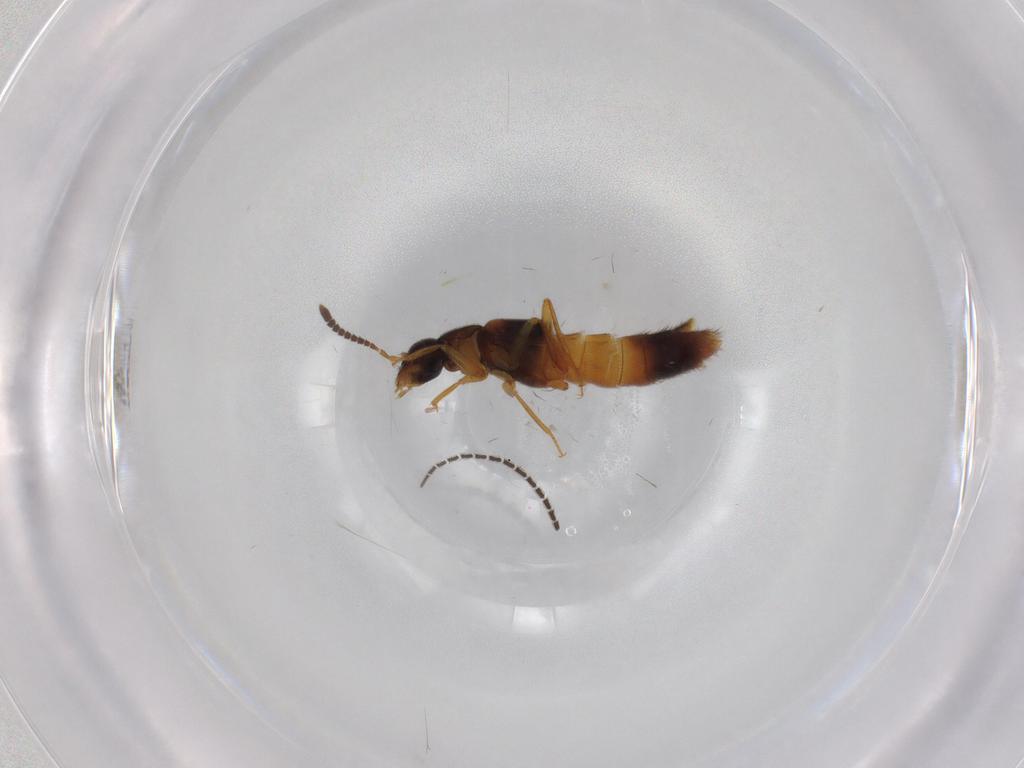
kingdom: Animalia
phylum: Arthropoda
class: Insecta
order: Coleoptera
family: Staphylinidae
